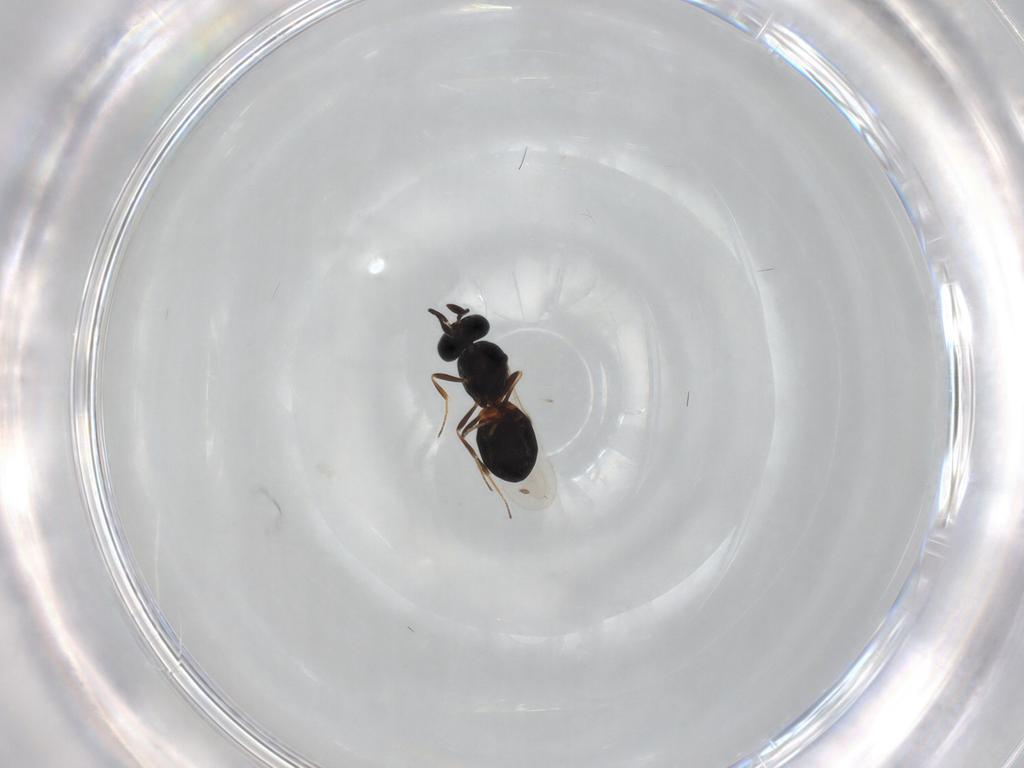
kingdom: Animalia
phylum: Arthropoda
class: Insecta
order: Hymenoptera
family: Scelionidae
